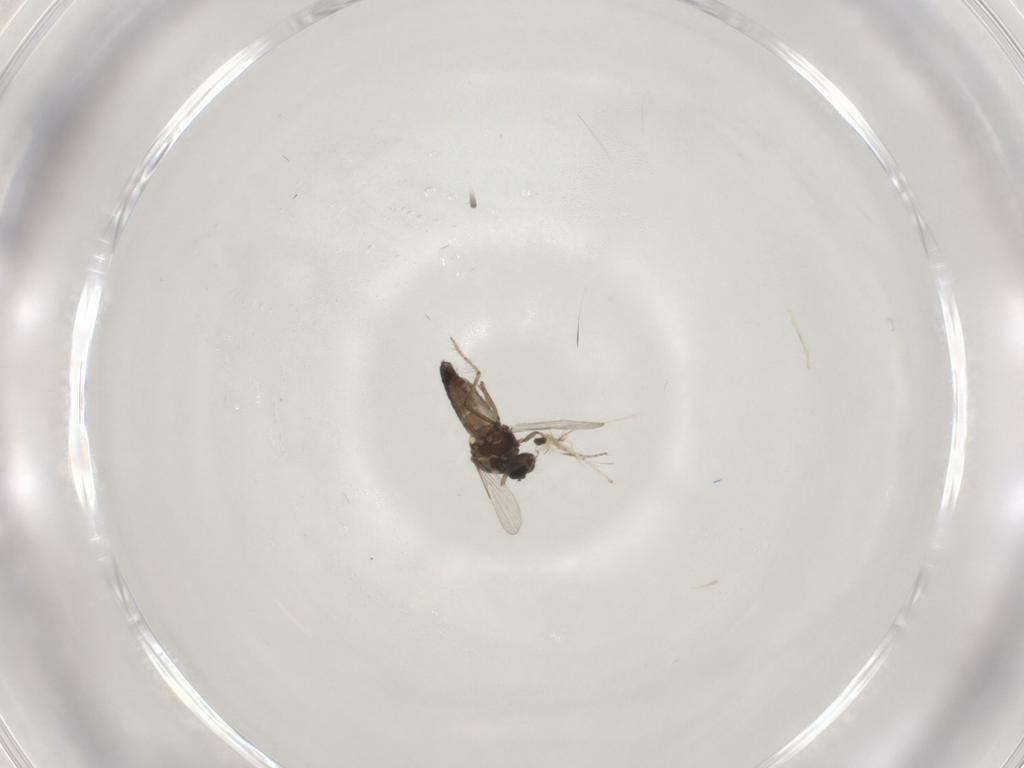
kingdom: Animalia
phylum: Arthropoda
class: Insecta
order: Diptera
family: Ceratopogonidae
